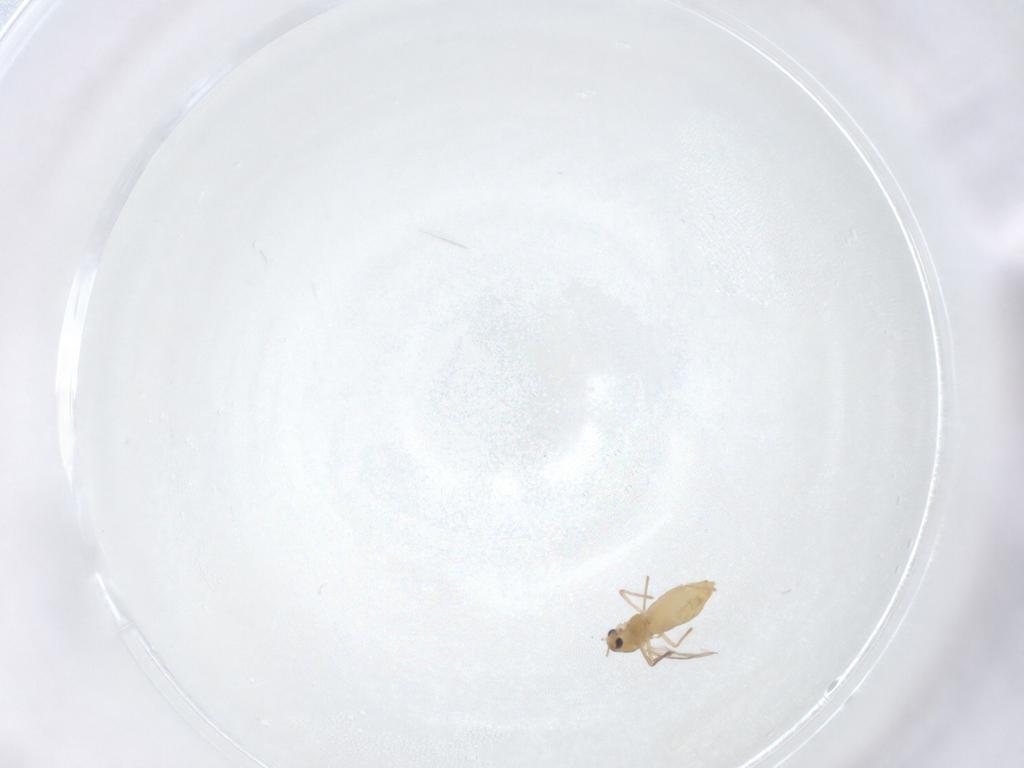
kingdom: Animalia
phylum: Arthropoda
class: Insecta
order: Diptera
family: Chironomidae
